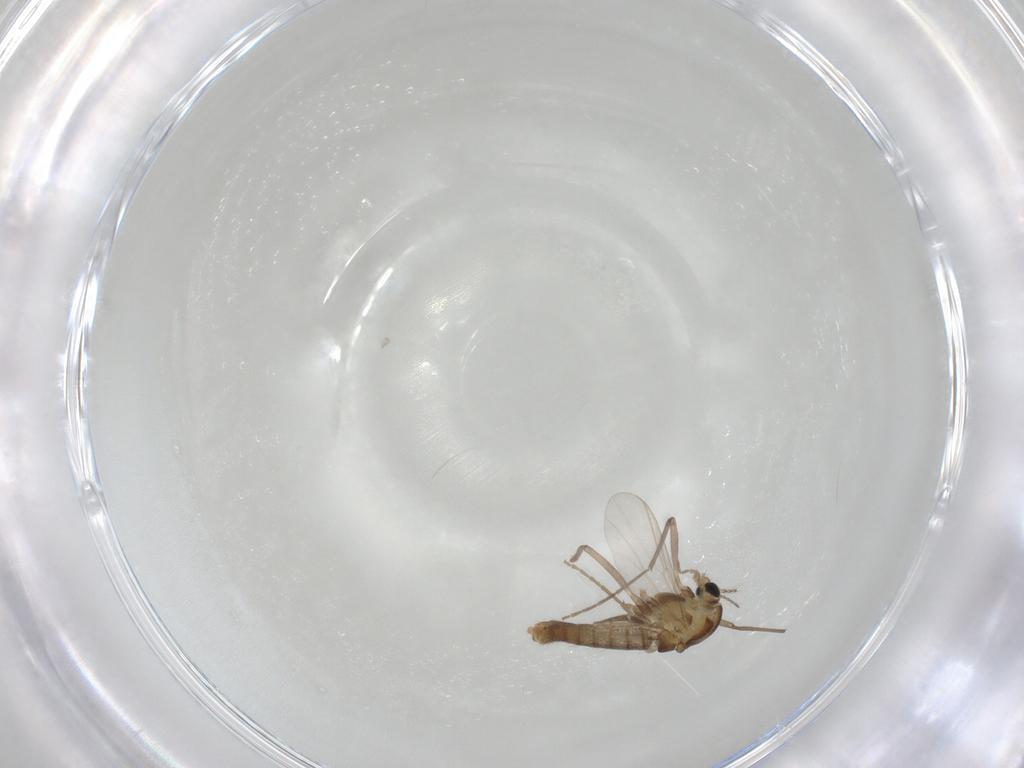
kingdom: Animalia
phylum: Arthropoda
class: Insecta
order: Diptera
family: Chironomidae
